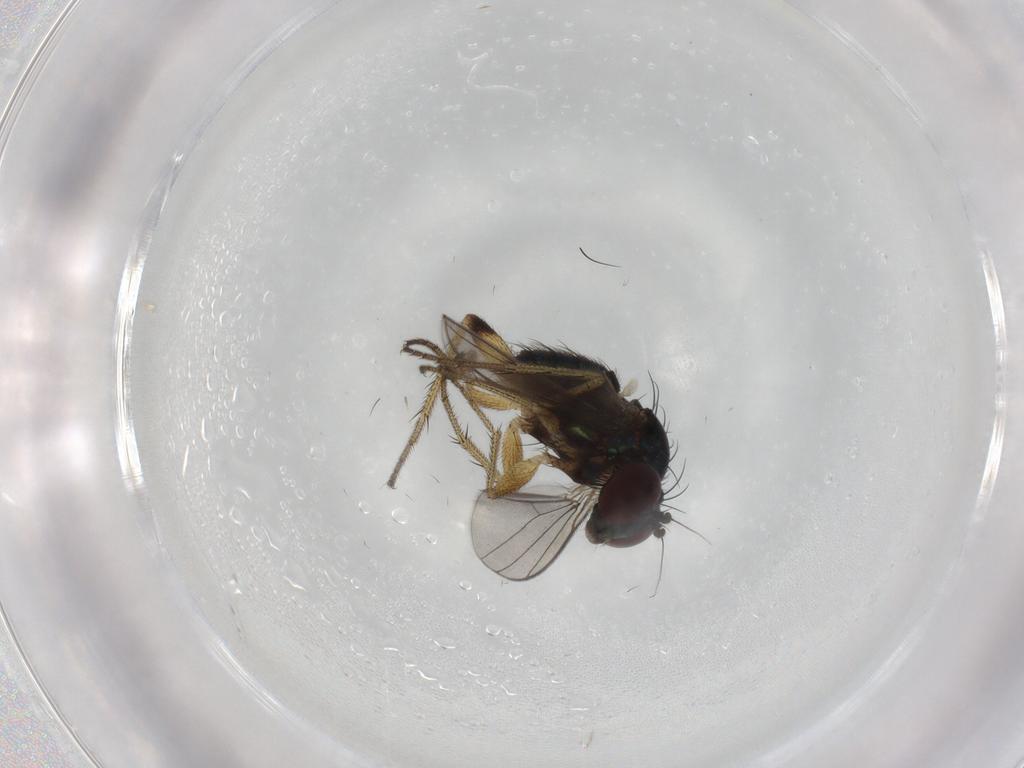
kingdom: Animalia
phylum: Arthropoda
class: Insecta
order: Diptera
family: Dolichopodidae
